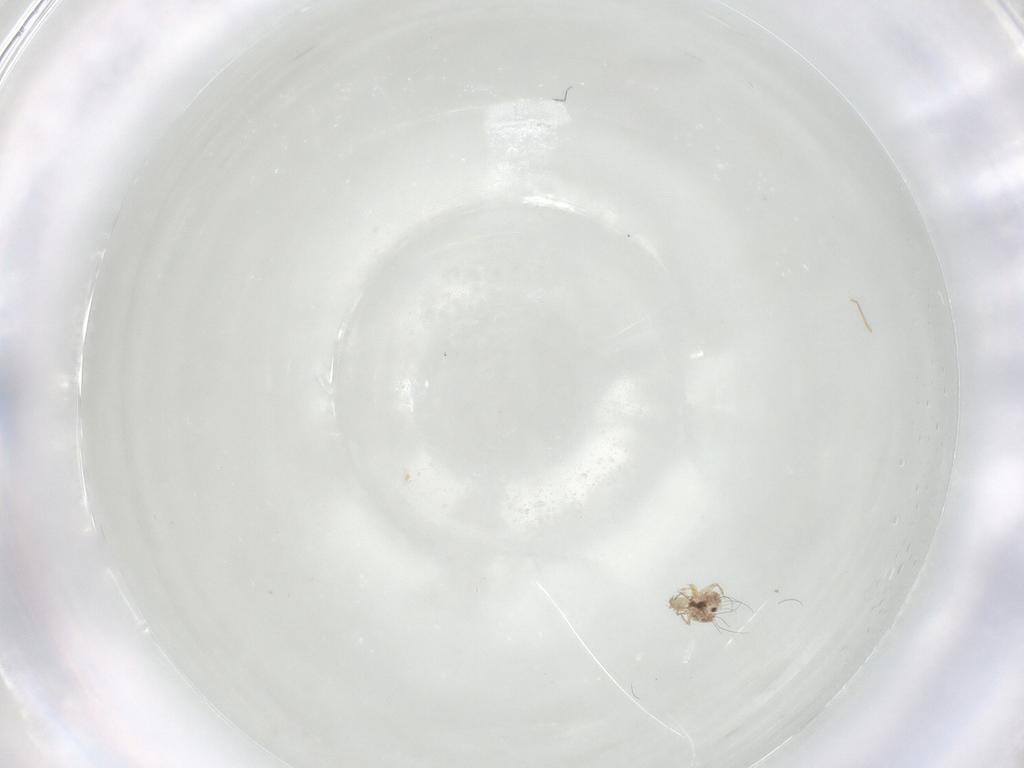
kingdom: Animalia
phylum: Arthropoda
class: Arachnida
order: Sarcoptiformes
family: Caloppiidae
